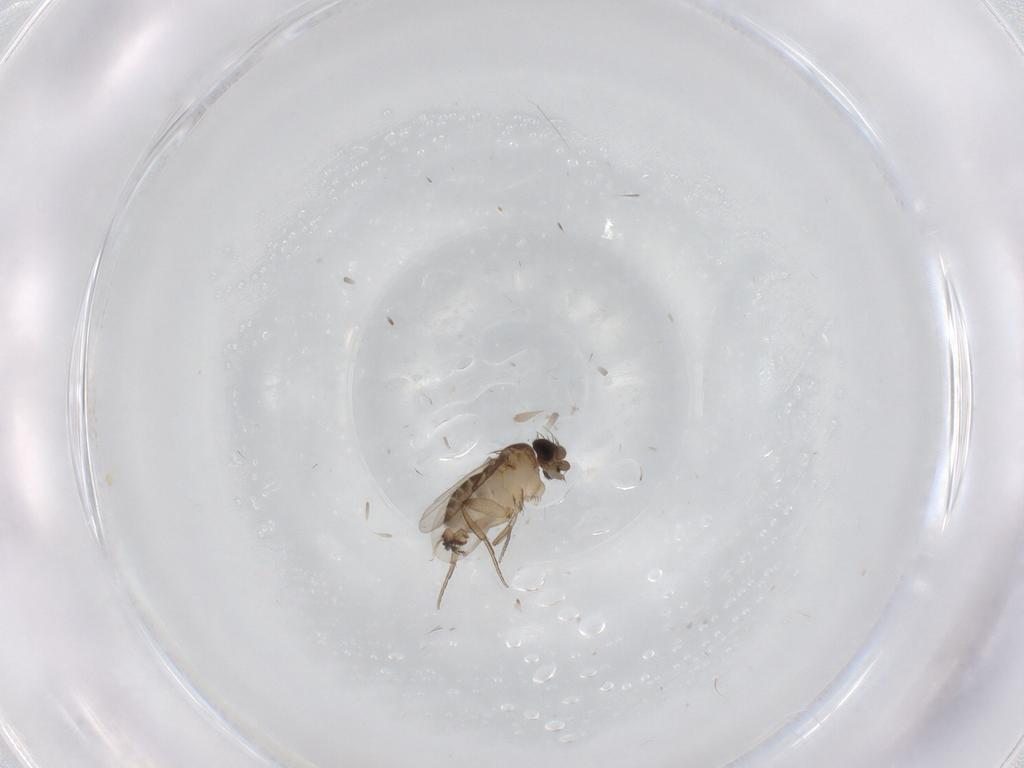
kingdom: Animalia
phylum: Arthropoda
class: Insecta
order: Diptera
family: Phoridae
